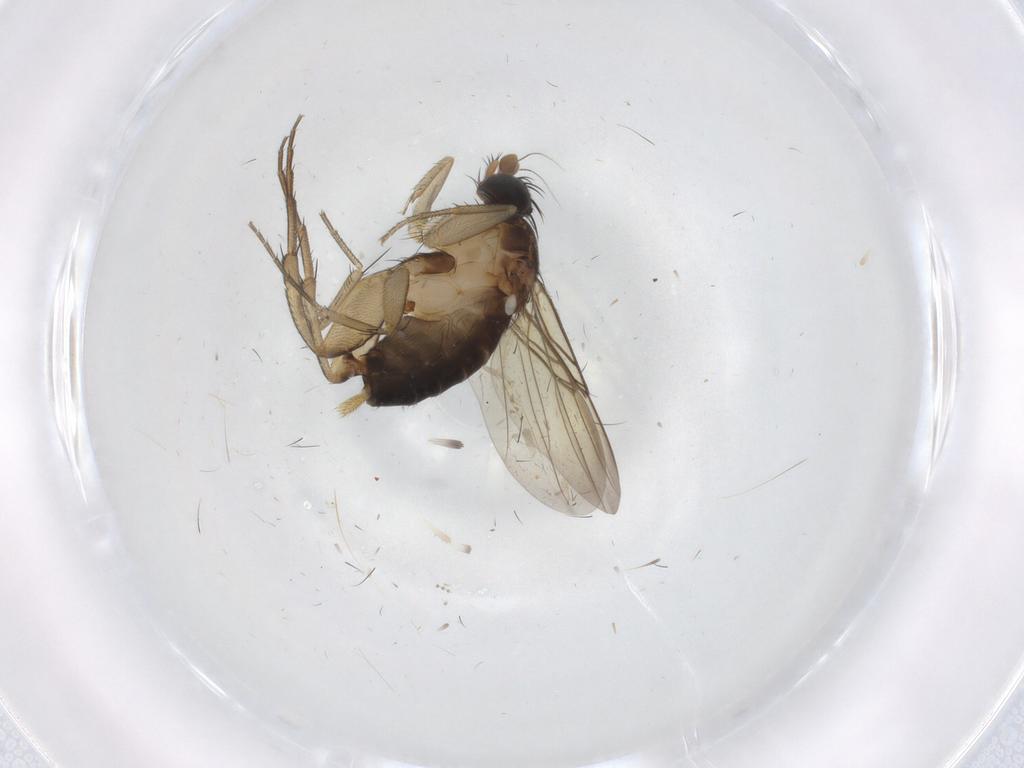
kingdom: Animalia
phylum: Arthropoda
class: Insecta
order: Diptera
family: Phoridae
